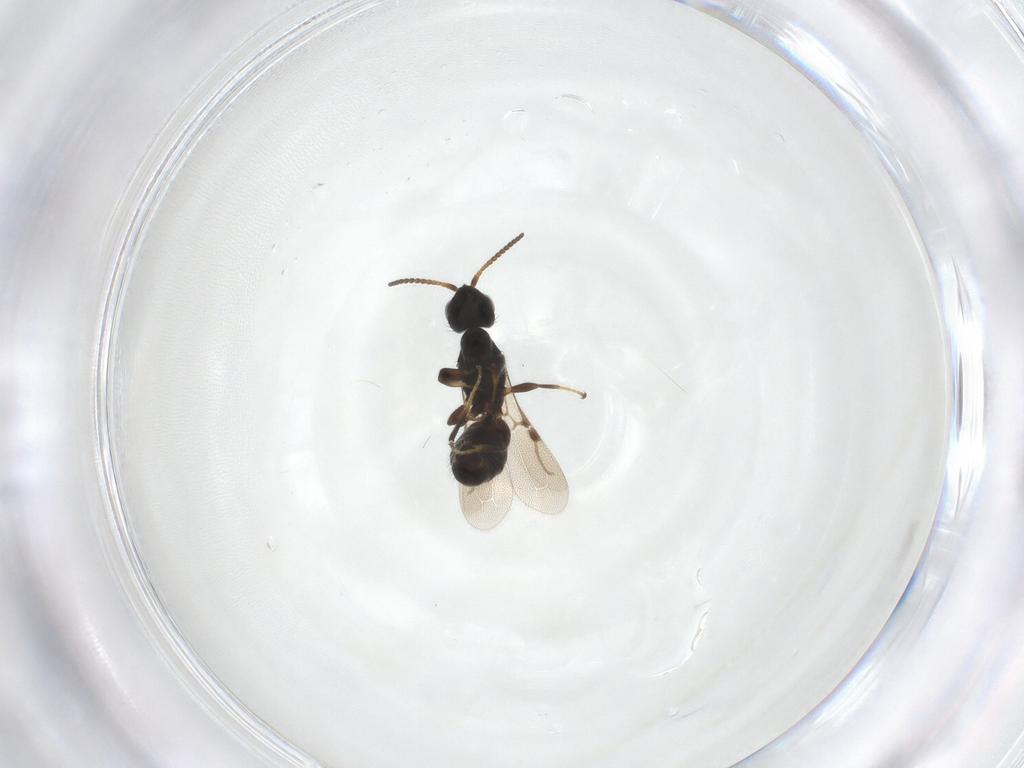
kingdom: Animalia
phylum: Arthropoda
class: Insecta
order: Hymenoptera
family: Bethylidae
